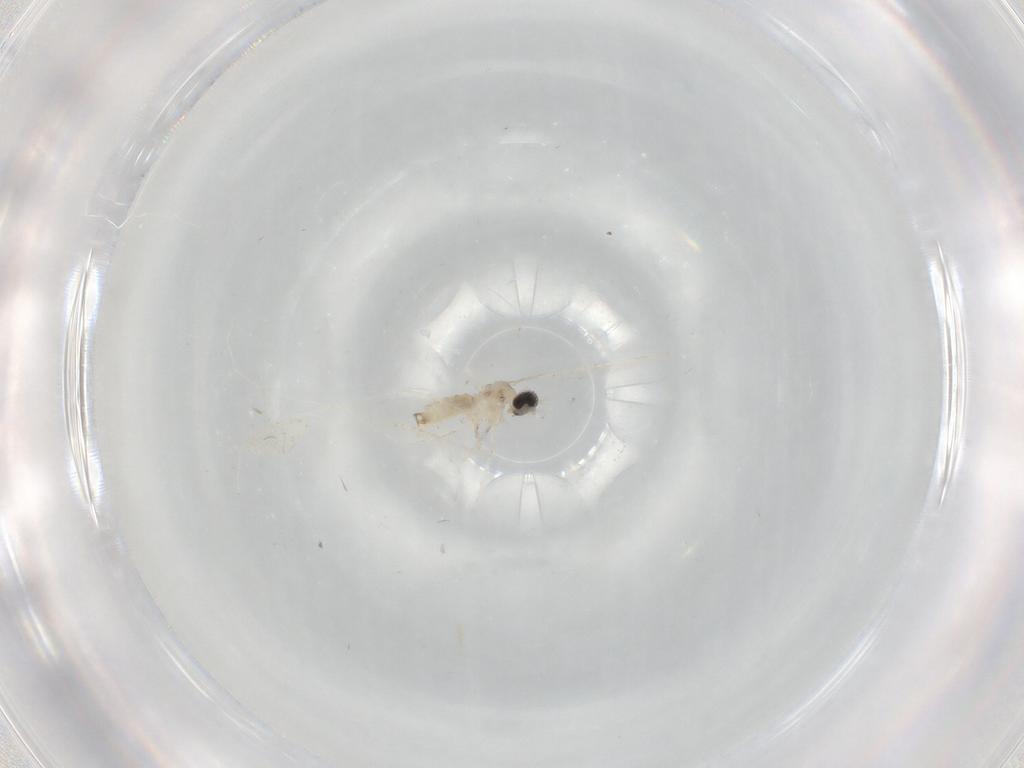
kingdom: Animalia
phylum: Arthropoda
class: Insecta
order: Diptera
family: Cecidomyiidae
